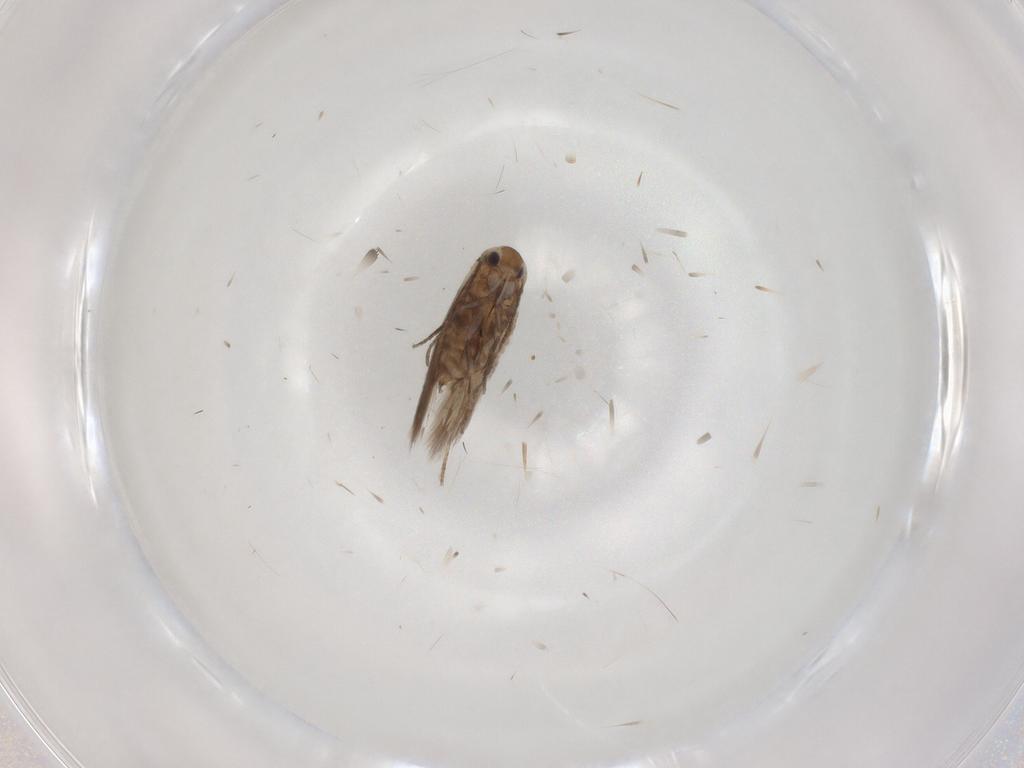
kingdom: Animalia
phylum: Arthropoda
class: Insecta
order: Lepidoptera
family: Nymphalidae
